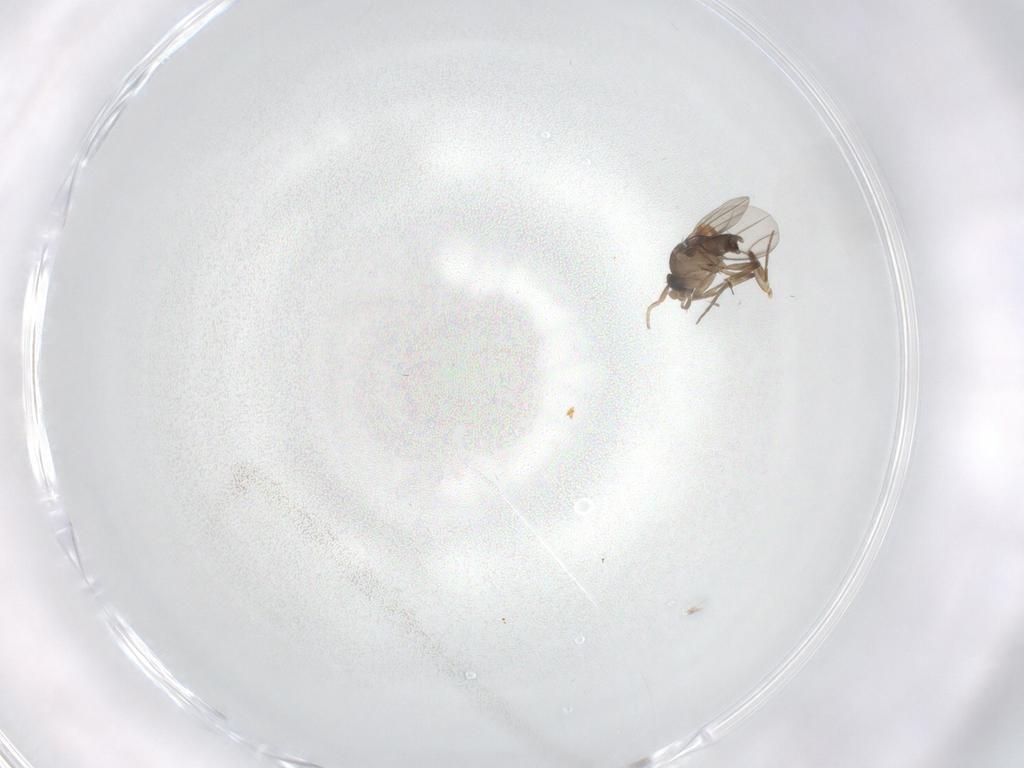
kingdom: Animalia
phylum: Arthropoda
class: Insecta
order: Diptera
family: Phoridae
